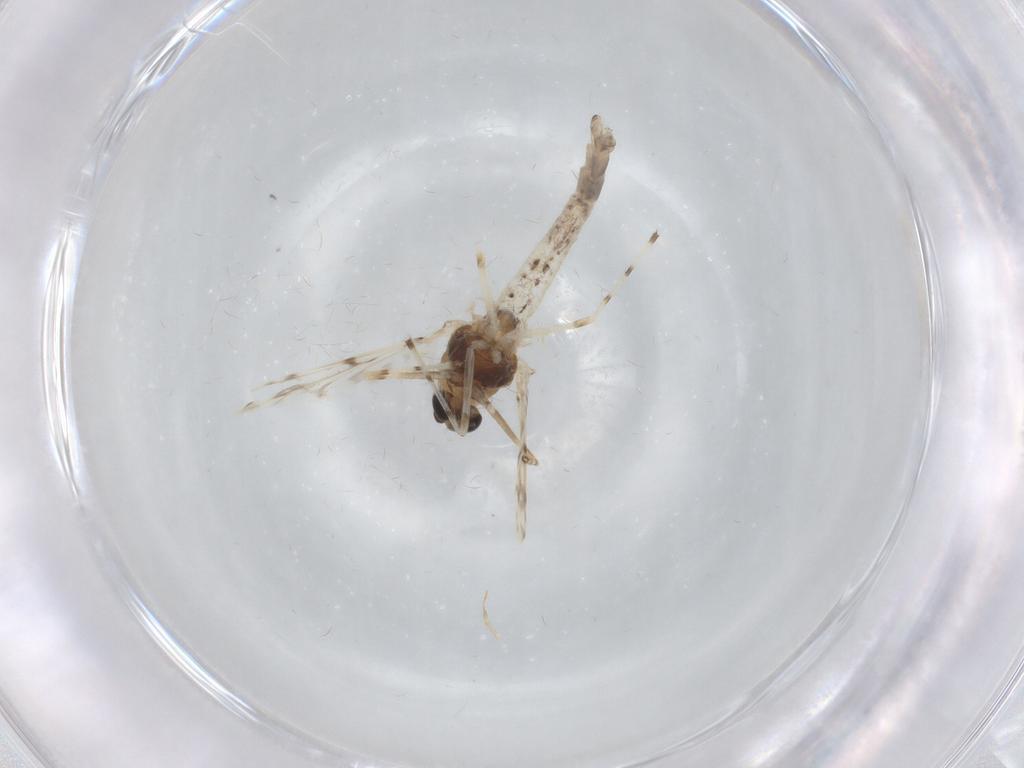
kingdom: Animalia
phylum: Arthropoda
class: Insecta
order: Diptera
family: Chironomidae
